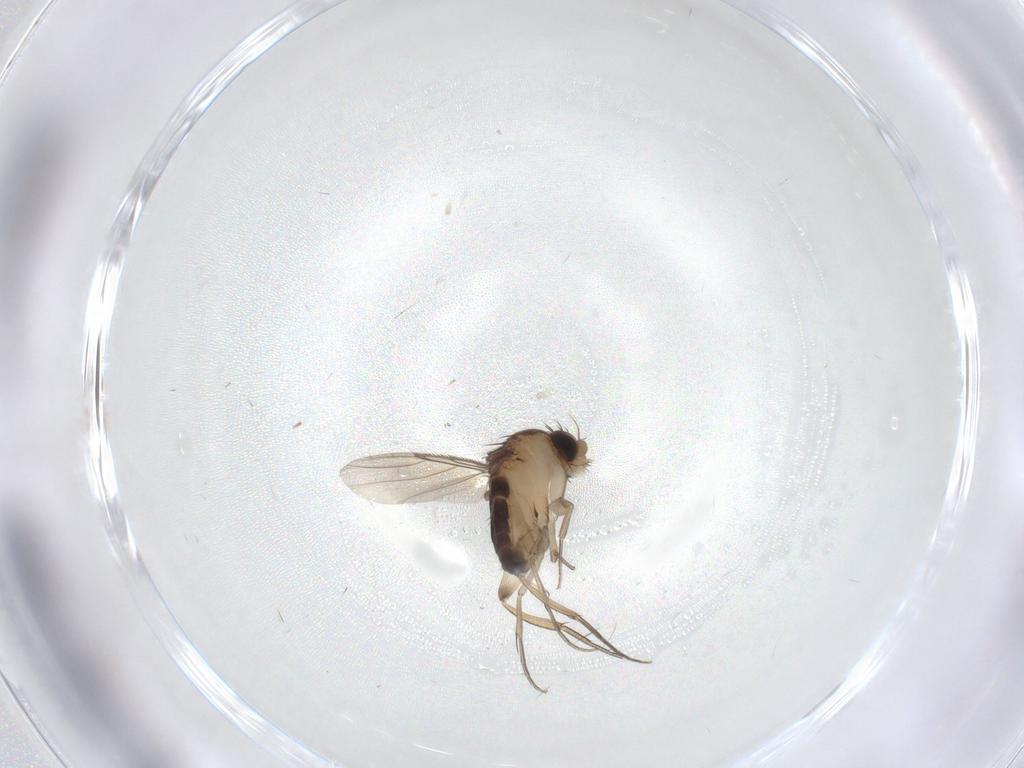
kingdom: Animalia
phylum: Arthropoda
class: Insecta
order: Diptera
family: Phoridae
